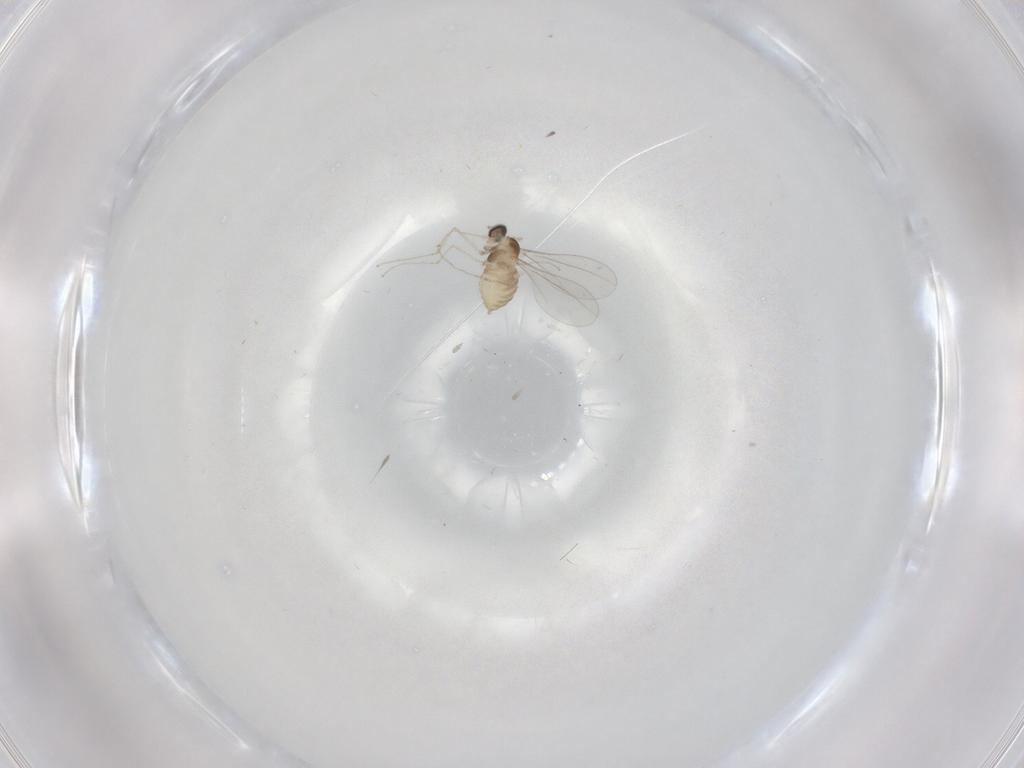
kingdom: Animalia
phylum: Arthropoda
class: Insecta
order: Diptera
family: Cecidomyiidae
